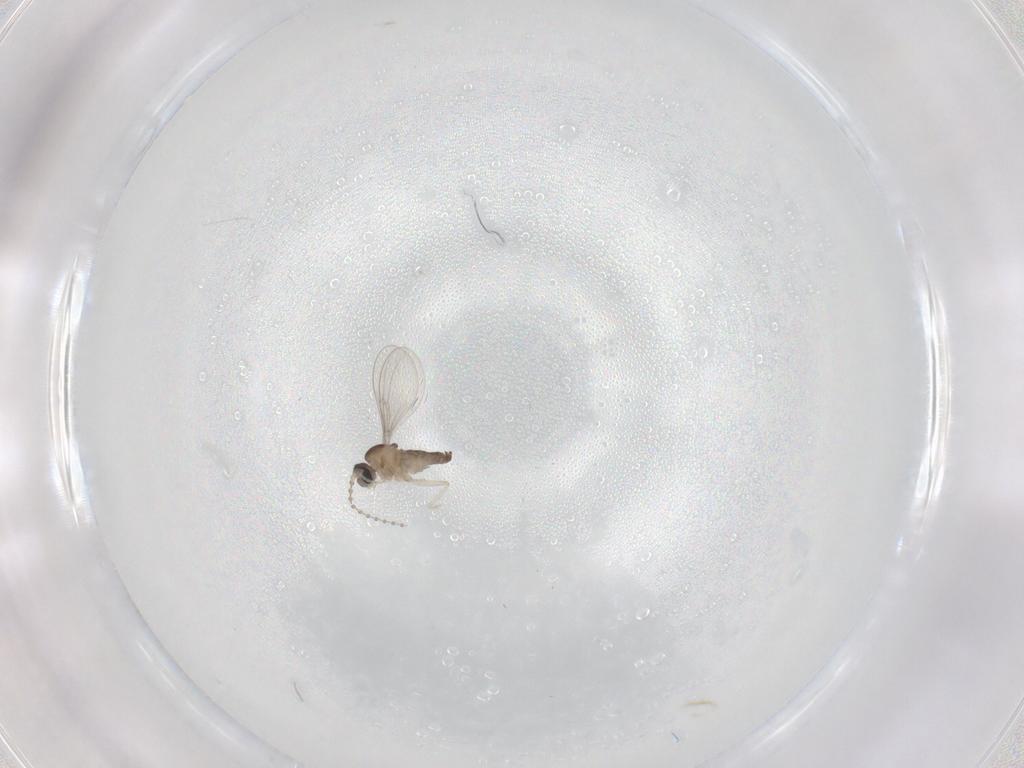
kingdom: Animalia
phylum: Arthropoda
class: Insecta
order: Diptera
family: Cecidomyiidae
